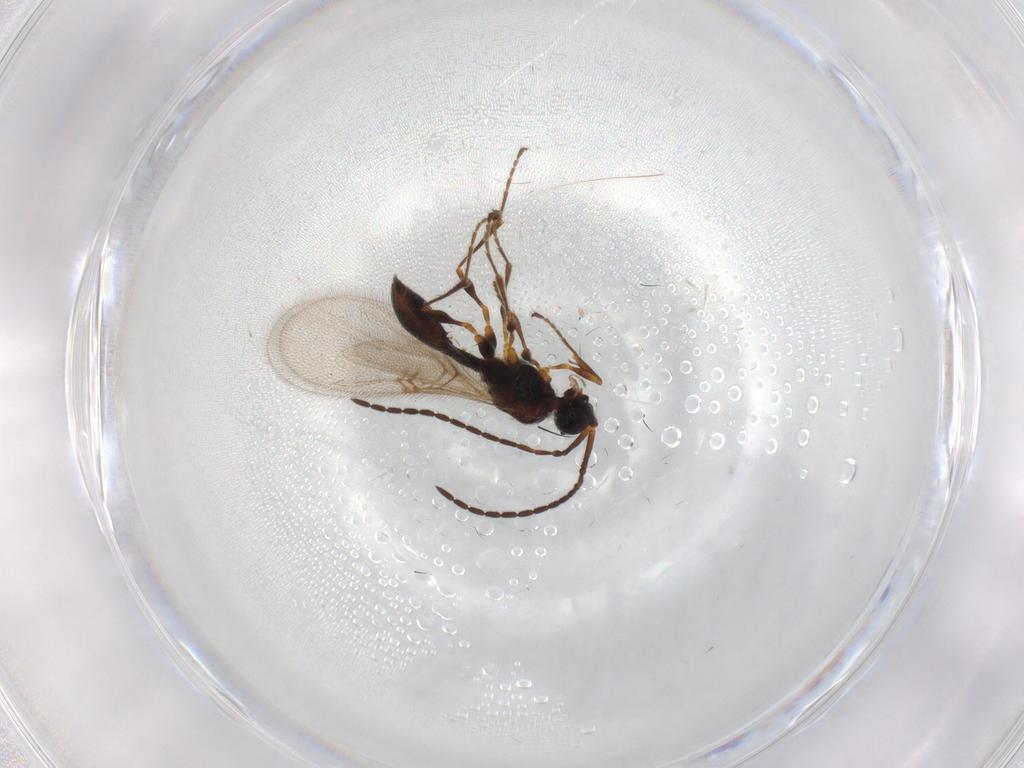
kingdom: Animalia
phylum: Arthropoda
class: Insecta
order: Hymenoptera
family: Diapriidae
